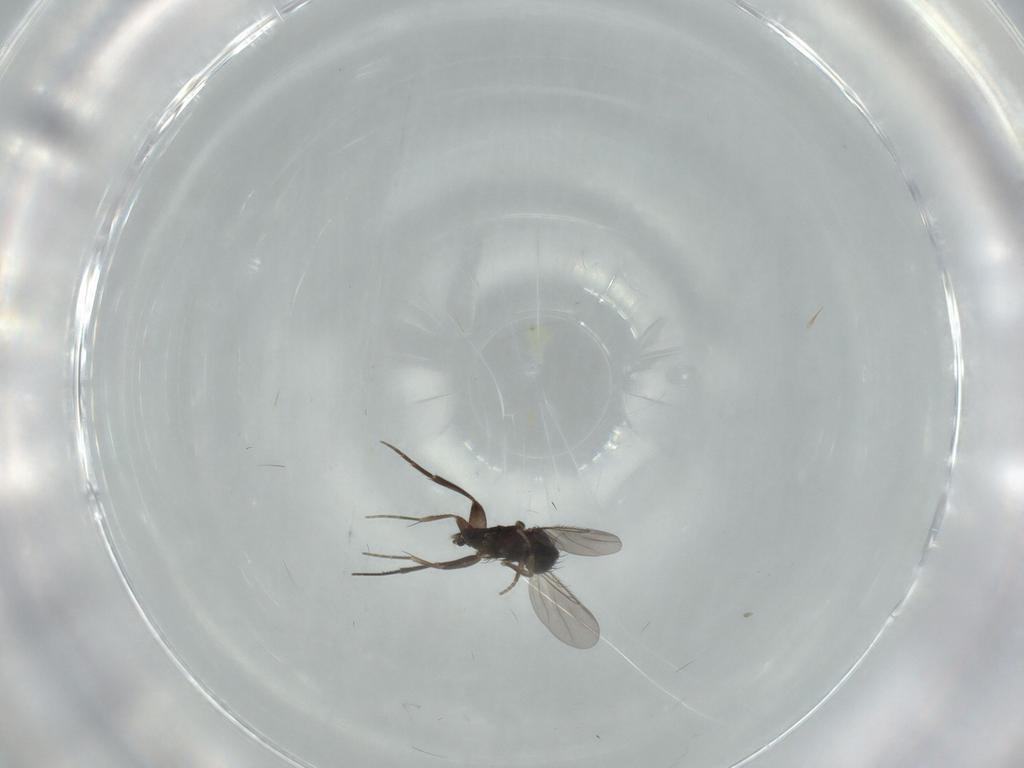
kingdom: Animalia
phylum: Arthropoda
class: Insecta
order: Diptera
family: Phoridae
